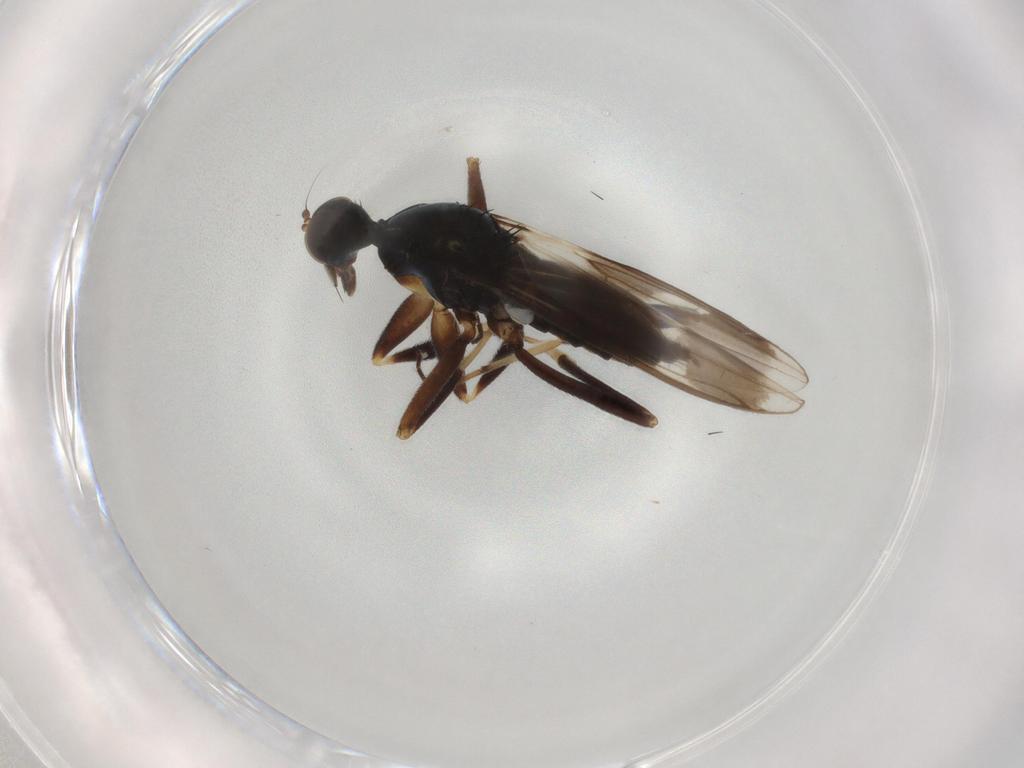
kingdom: Animalia
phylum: Arthropoda
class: Insecta
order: Diptera
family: Hybotidae
